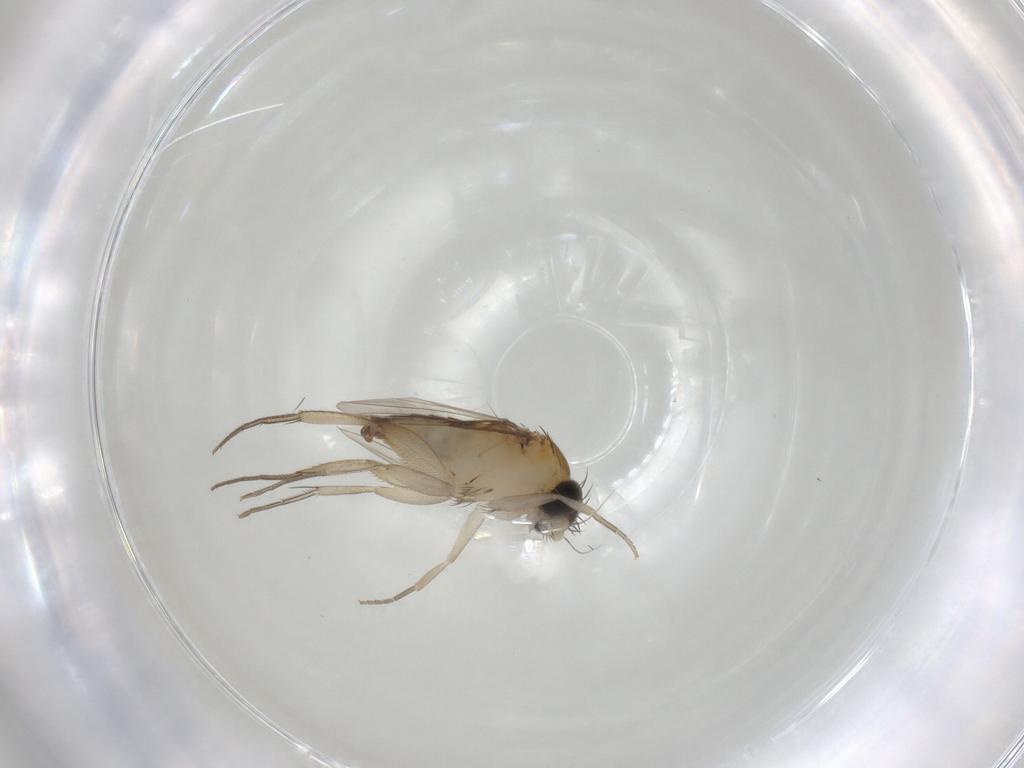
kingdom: Animalia
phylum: Arthropoda
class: Insecta
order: Diptera
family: Phoridae
